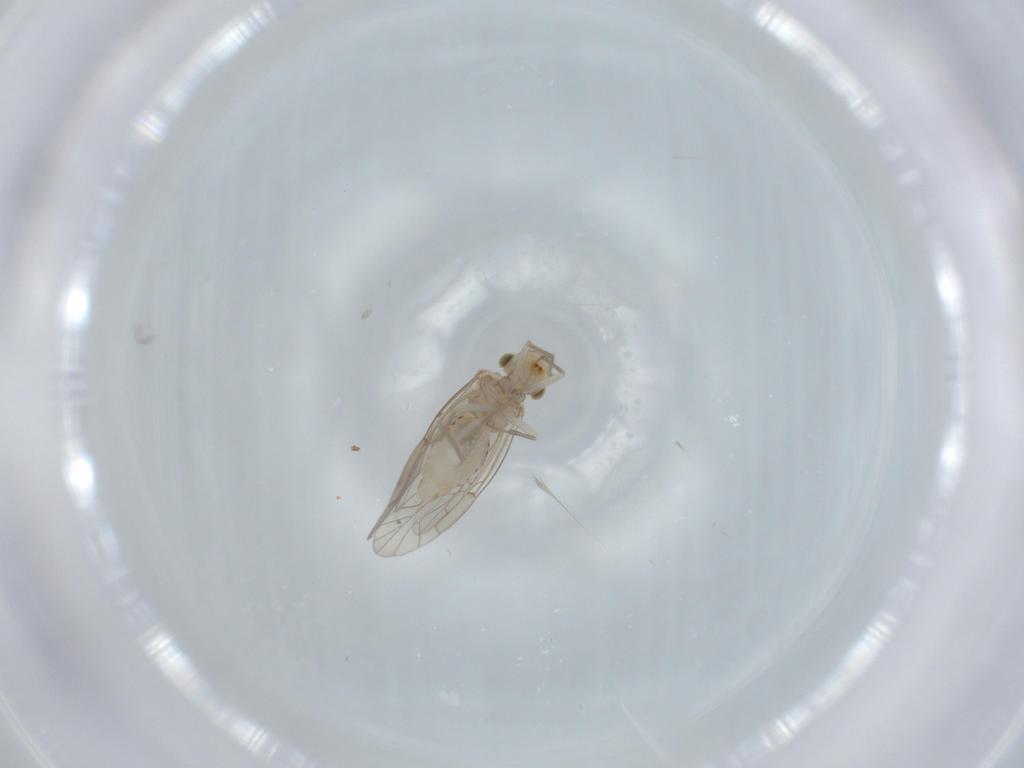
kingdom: Animalia
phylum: Arthropoda
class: Insecta
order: Psocodea
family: Lachesillidae
